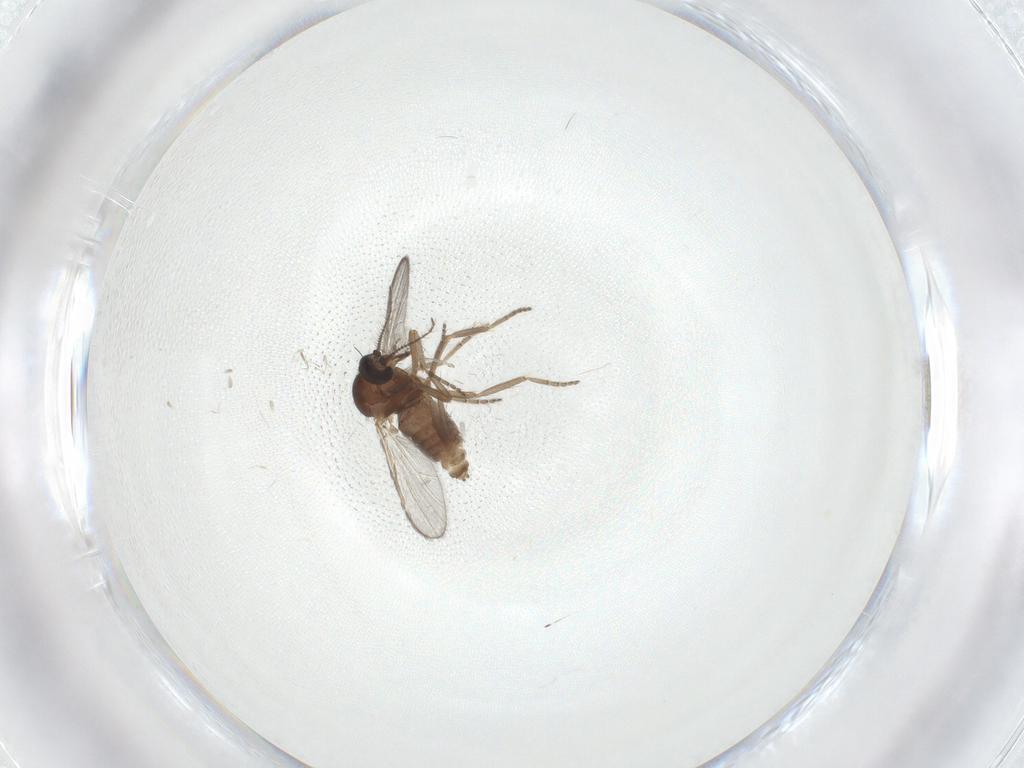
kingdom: Animalia
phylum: Arthropoda
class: Insecta
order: Diptera
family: Ceratopogonidae
